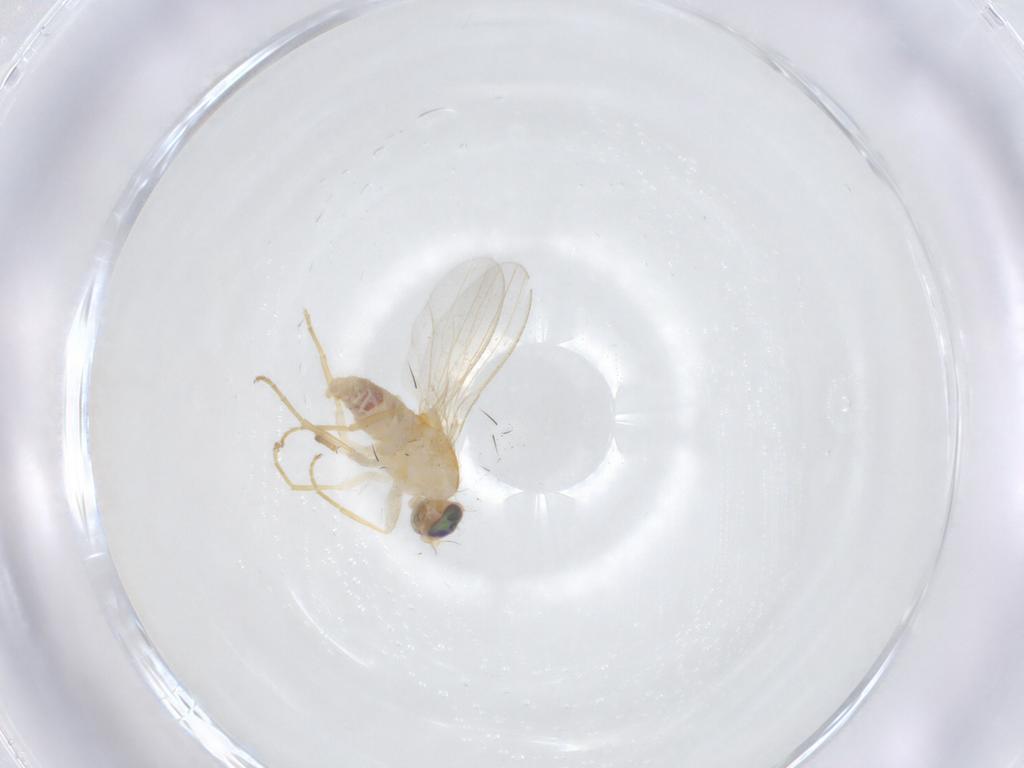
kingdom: Animalia
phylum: Arthropoda
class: Insecta
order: Diptera
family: Chyromyidae
